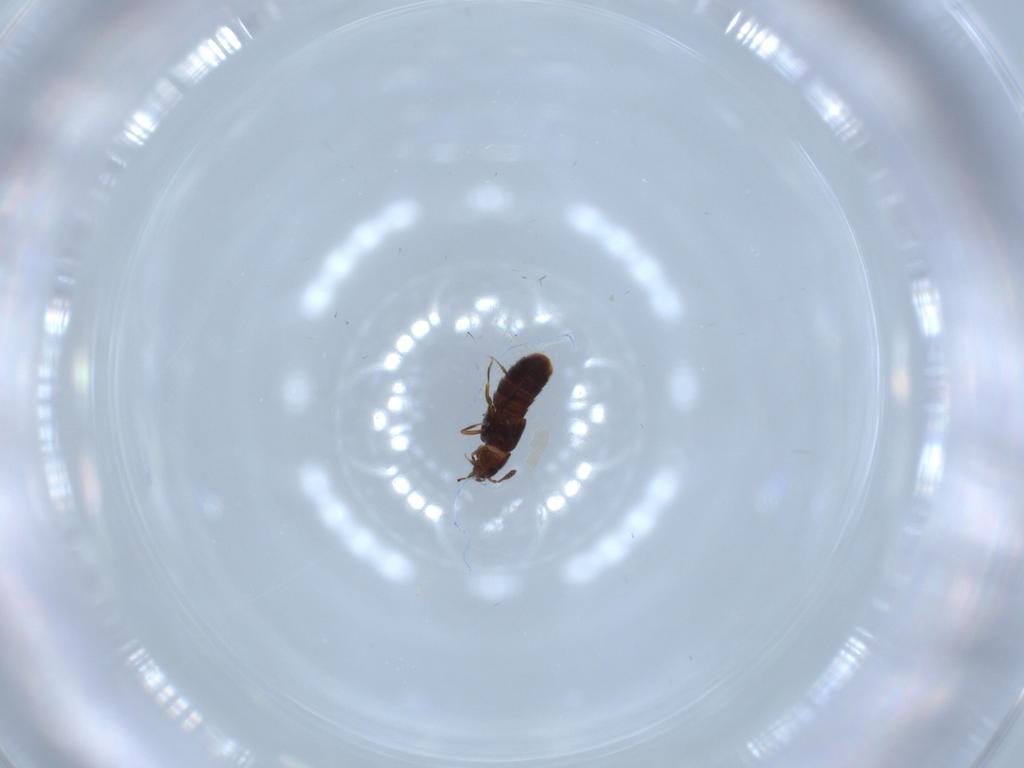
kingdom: Animalia
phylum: Arthropoda
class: Insecta
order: Coleoptera
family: Staphylinidae
